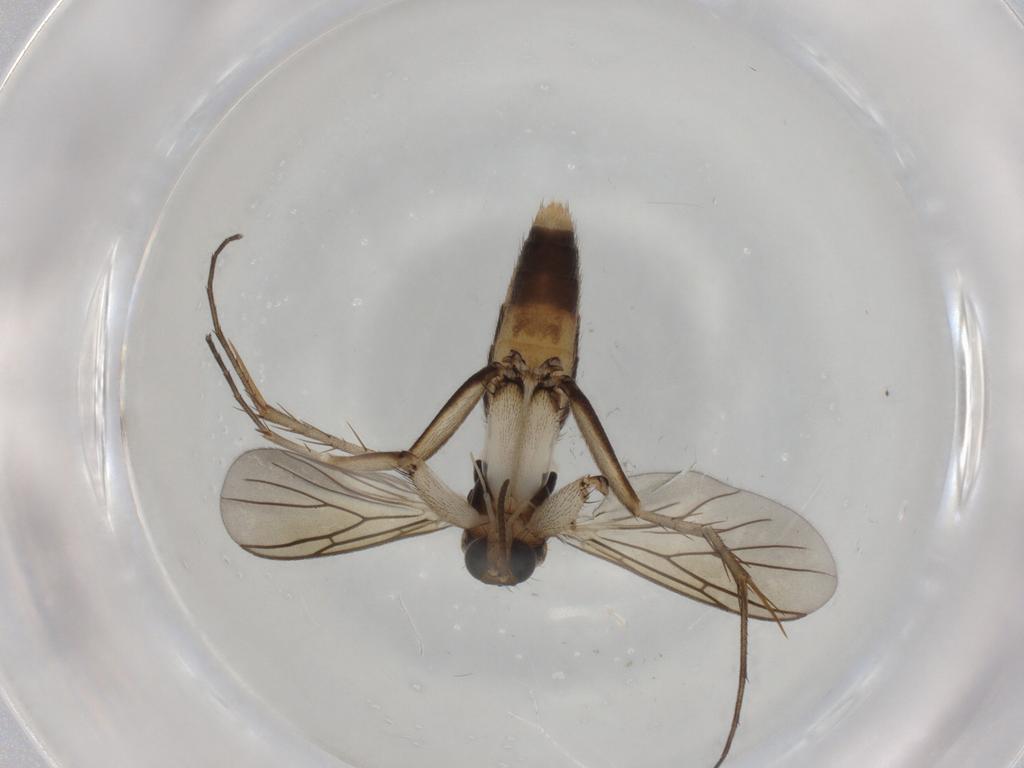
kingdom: Animalia
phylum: Arthropoda
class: Insecta
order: Diptera
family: Mycetophilidae
